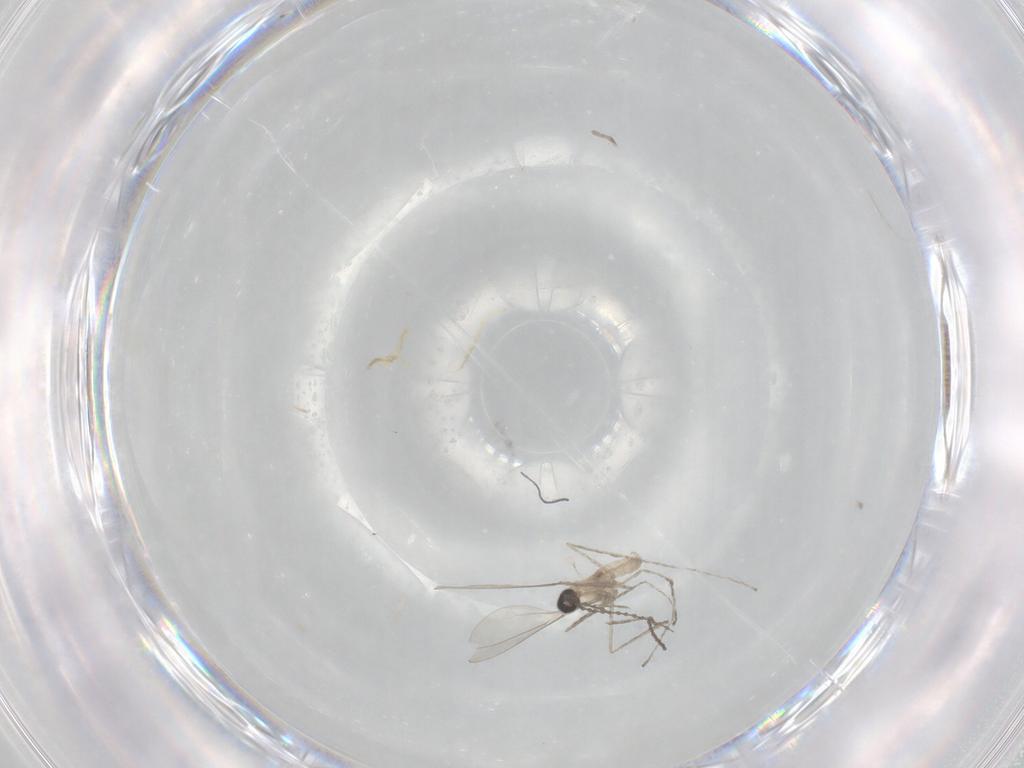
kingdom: Animalia
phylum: Arthropoda
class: Insecta
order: Diptera
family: Cecidomyiidae
